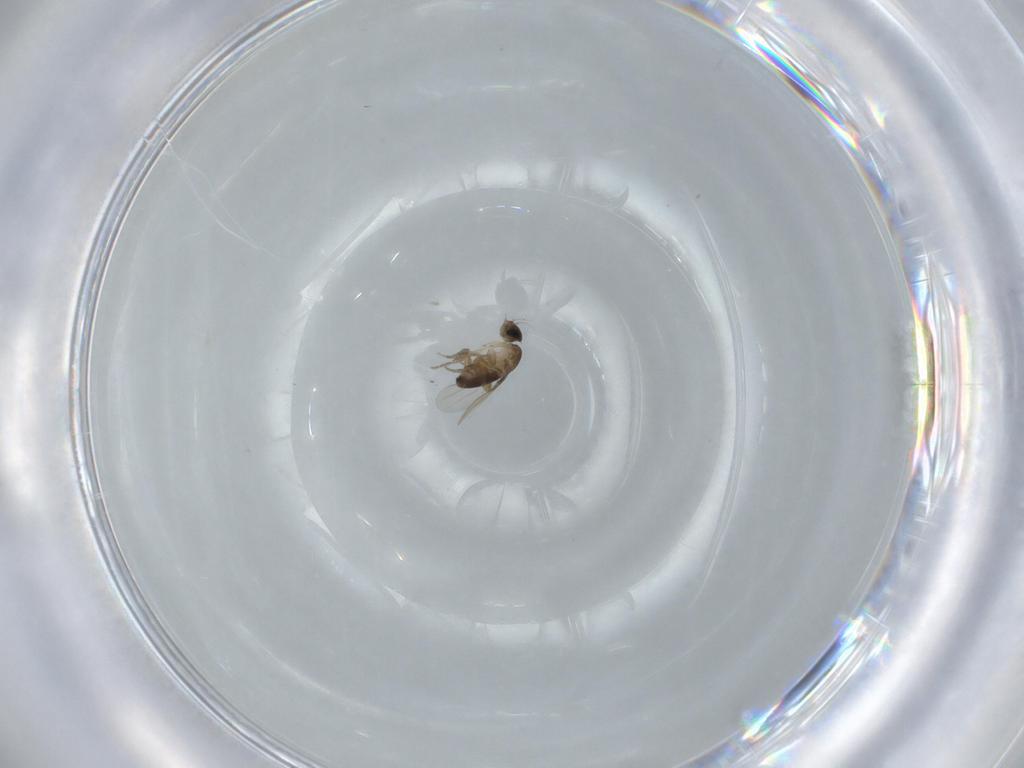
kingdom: Animalia
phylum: Arthropoda
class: Insecta
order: Diptera
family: Phoridae
